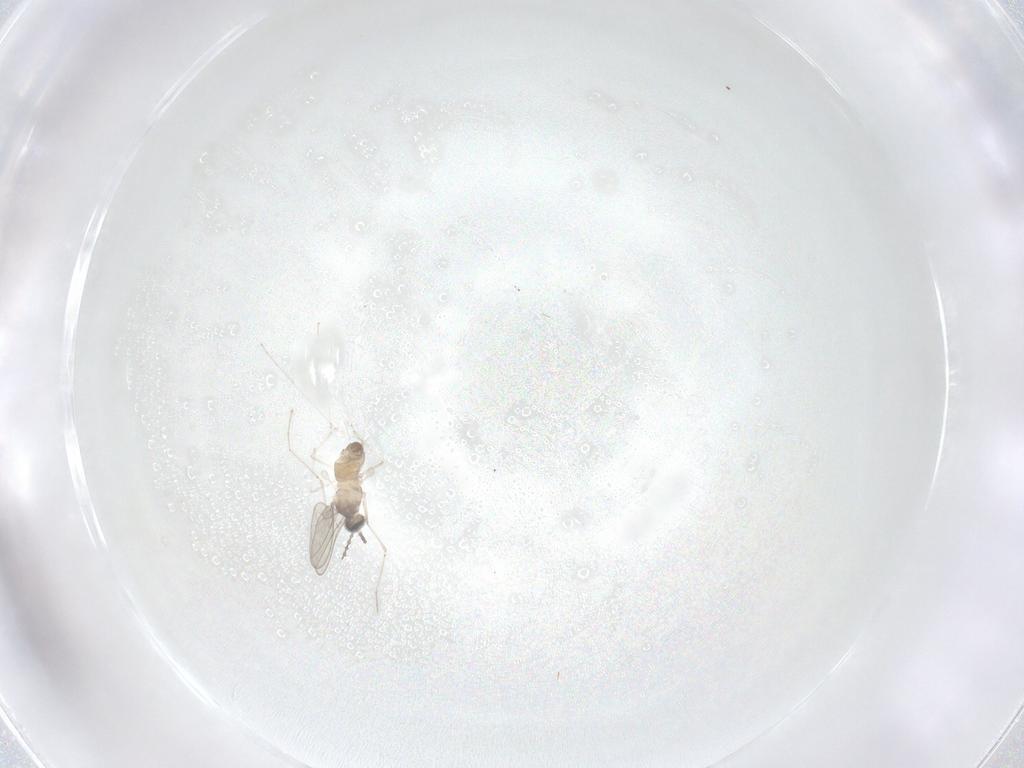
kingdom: Animalia
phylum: Arthropoda
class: Insecta
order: Diptera
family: Cecidomyiidae
